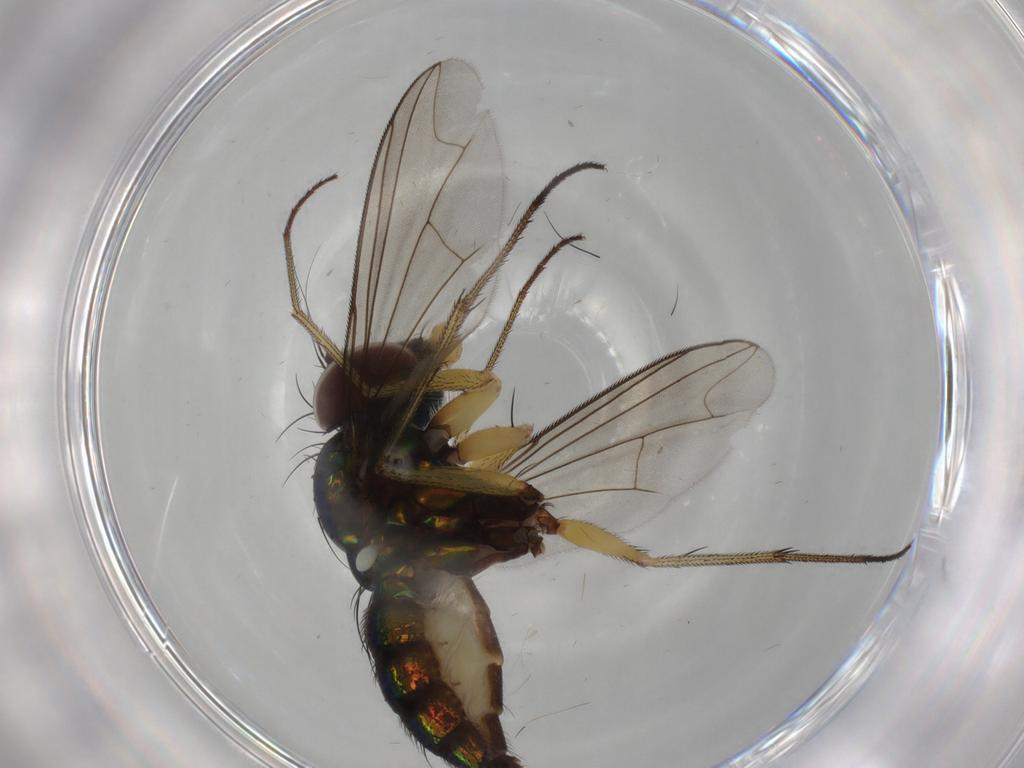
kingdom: Animalia
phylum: Arthropoda
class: Insecta
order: Diptera
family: Dolichopodidae
